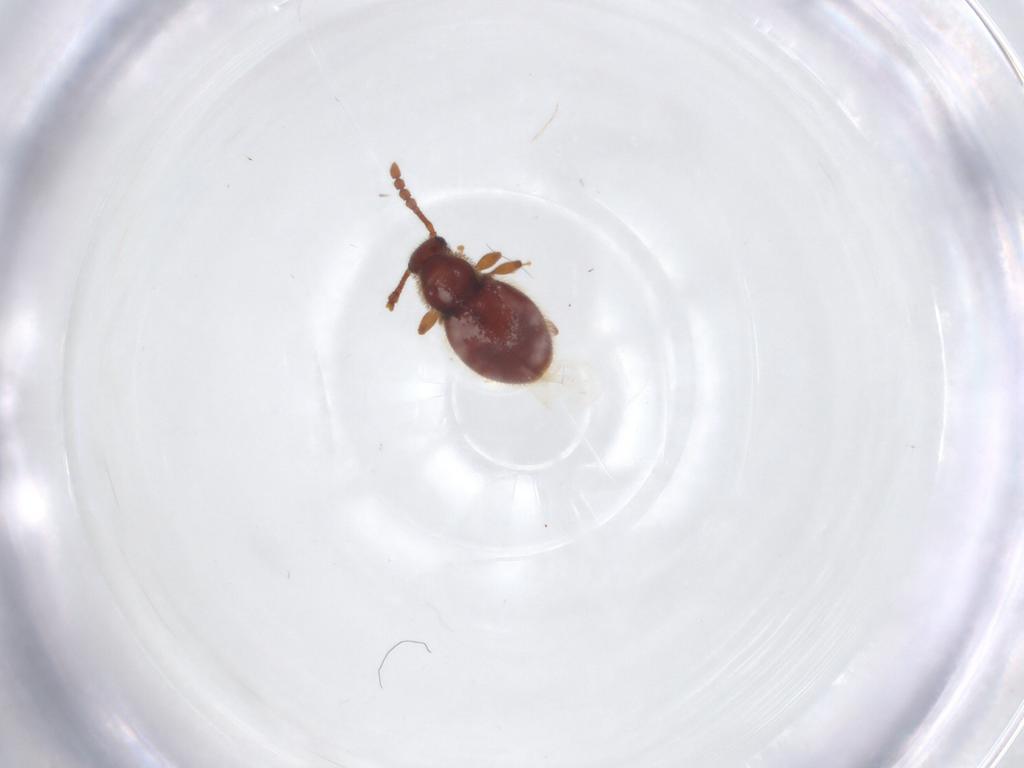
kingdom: Animalia
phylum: Arthropoda
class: Insecta
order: Coleoptera
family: Staphylinidae
